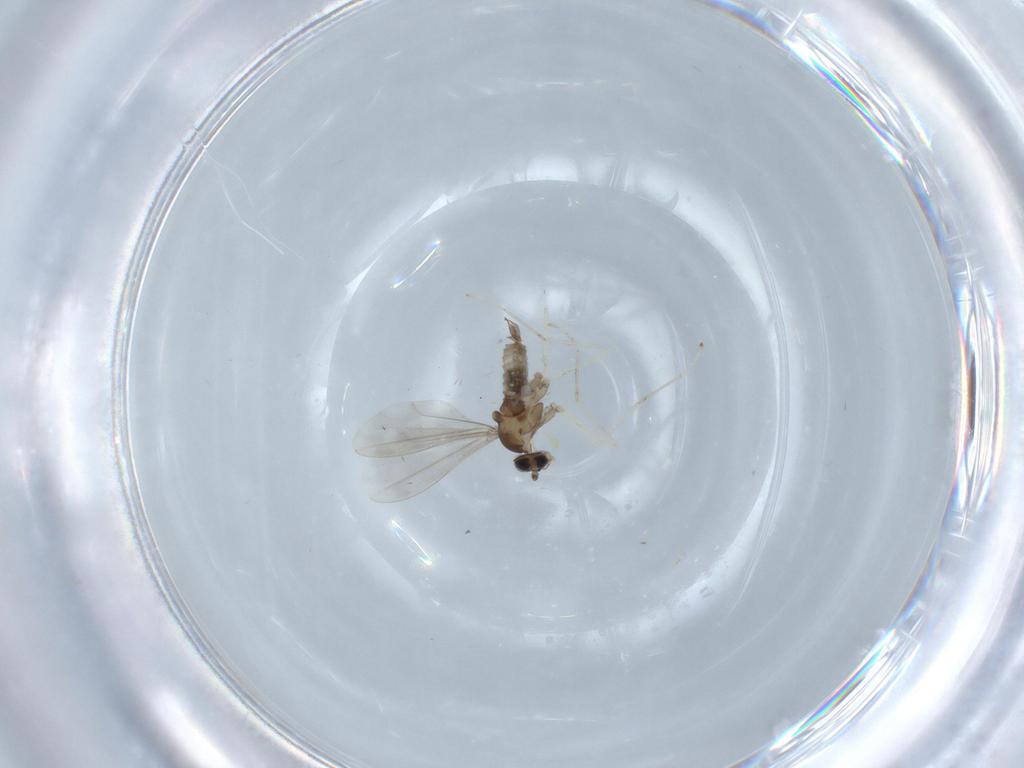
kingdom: Animalia
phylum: Arthropoda
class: Insecta
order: Diptera
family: Cecidomyiidae
